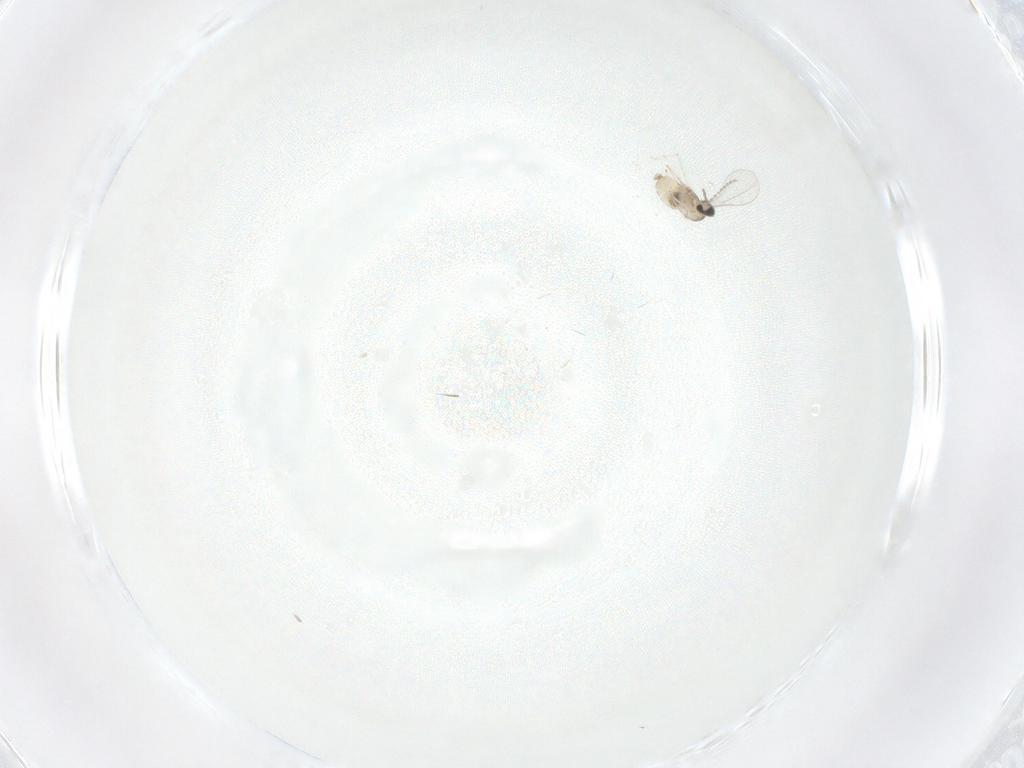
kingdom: Animalia
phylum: Arthropoda
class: Insecta
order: Diptera
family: Cecidomyiidae
